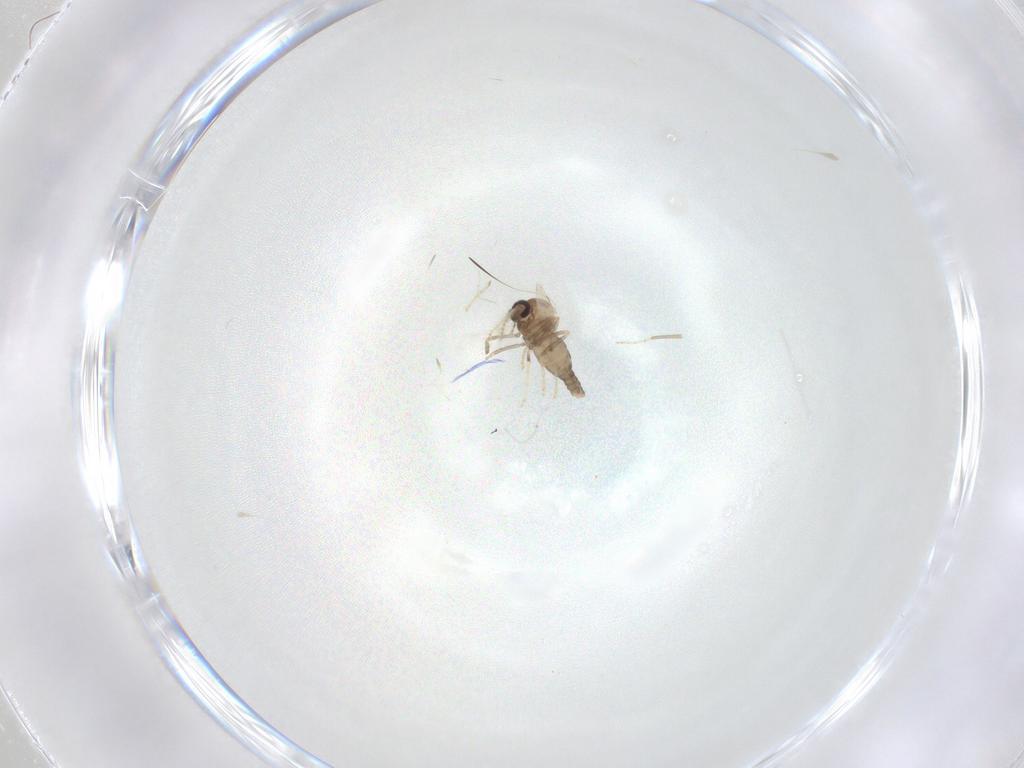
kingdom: Animalia
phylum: Arthropoda
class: Insecta
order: Diptera
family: Ceratopogonidae
